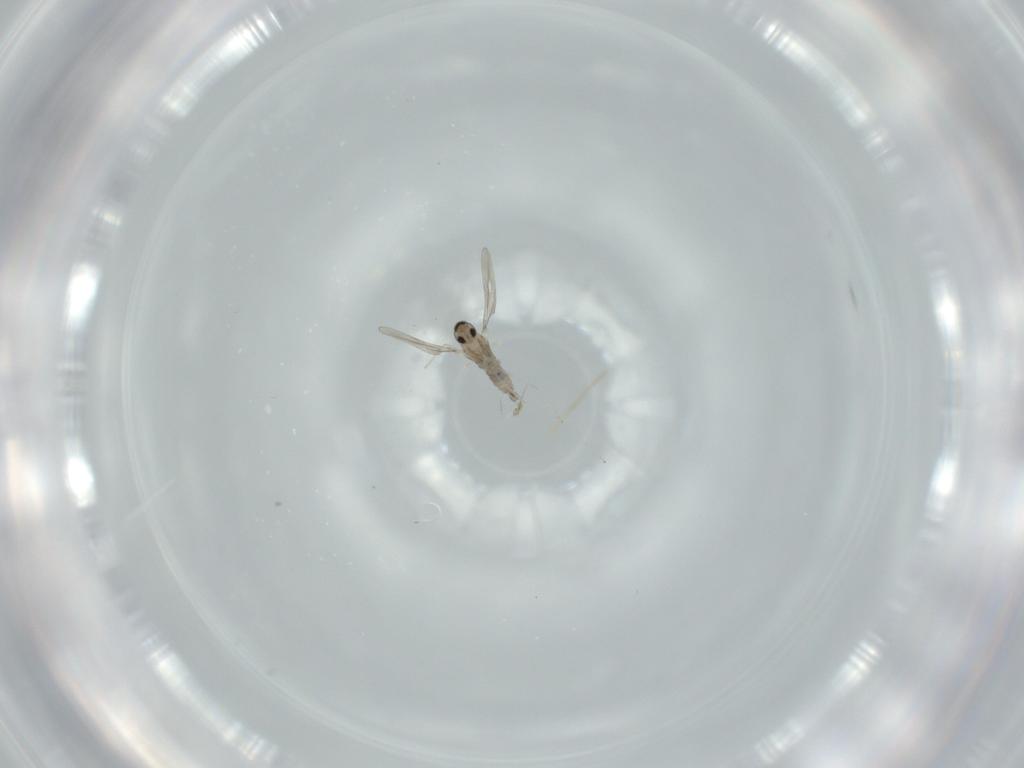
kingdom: Animalia
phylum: Arthropoda
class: Insecta
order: Diptera
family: Cecidomyiidae
